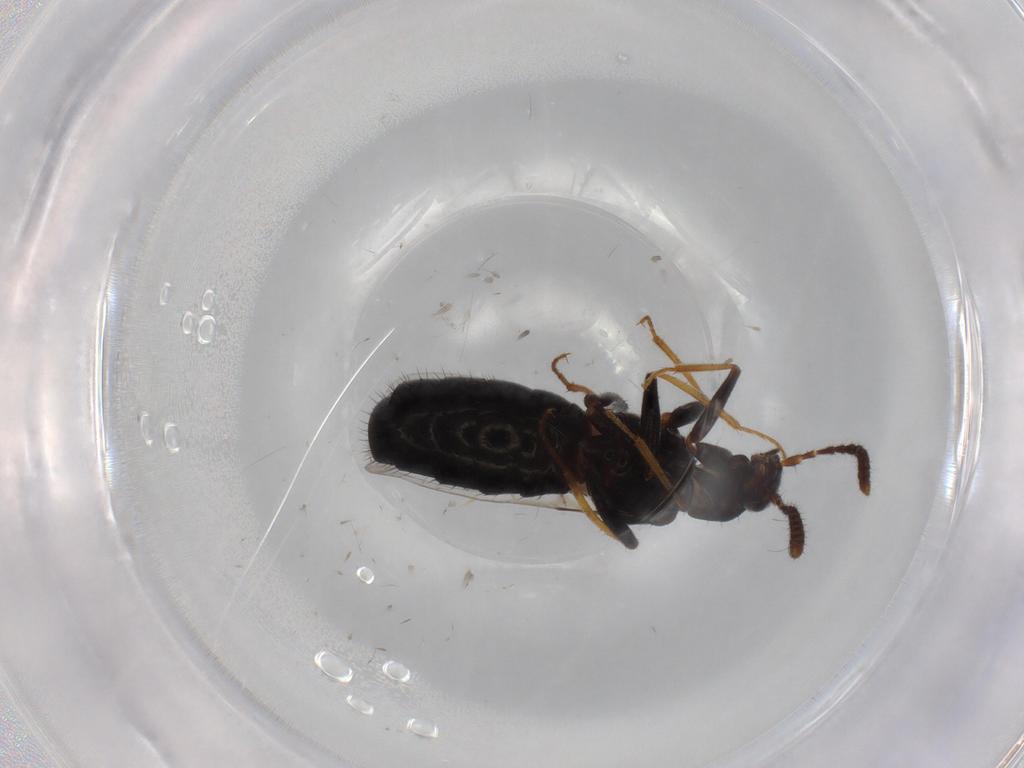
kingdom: Animalia
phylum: Arthropoda
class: Insecta
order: Coleoptera
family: Staphylinidae
